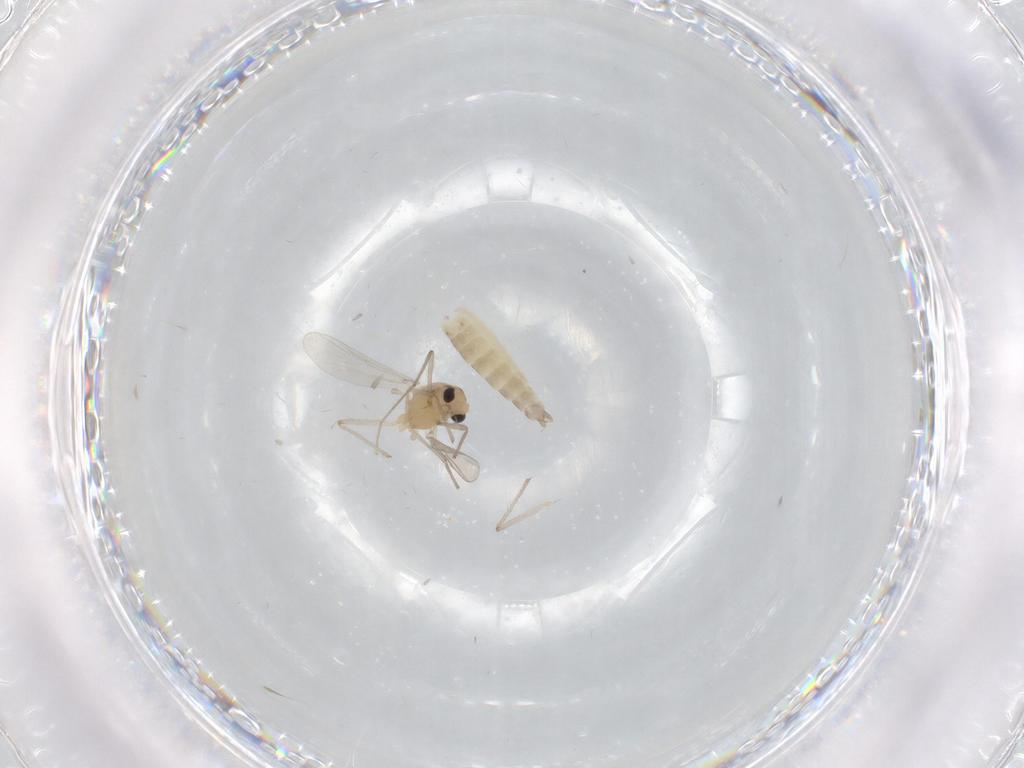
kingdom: Animalia
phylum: Arthropoda
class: Insecta
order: Diptera
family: Chironomidae
